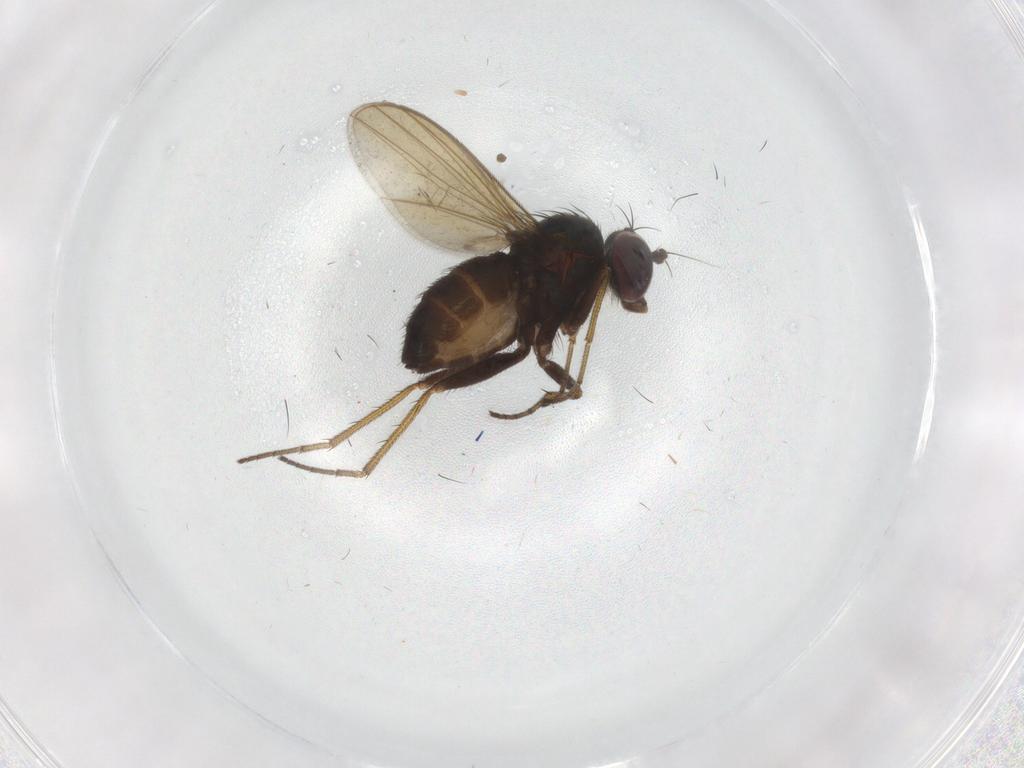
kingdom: Animalia
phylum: Arthropoda
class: Insecta
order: Diptera
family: Dolichopodidae
